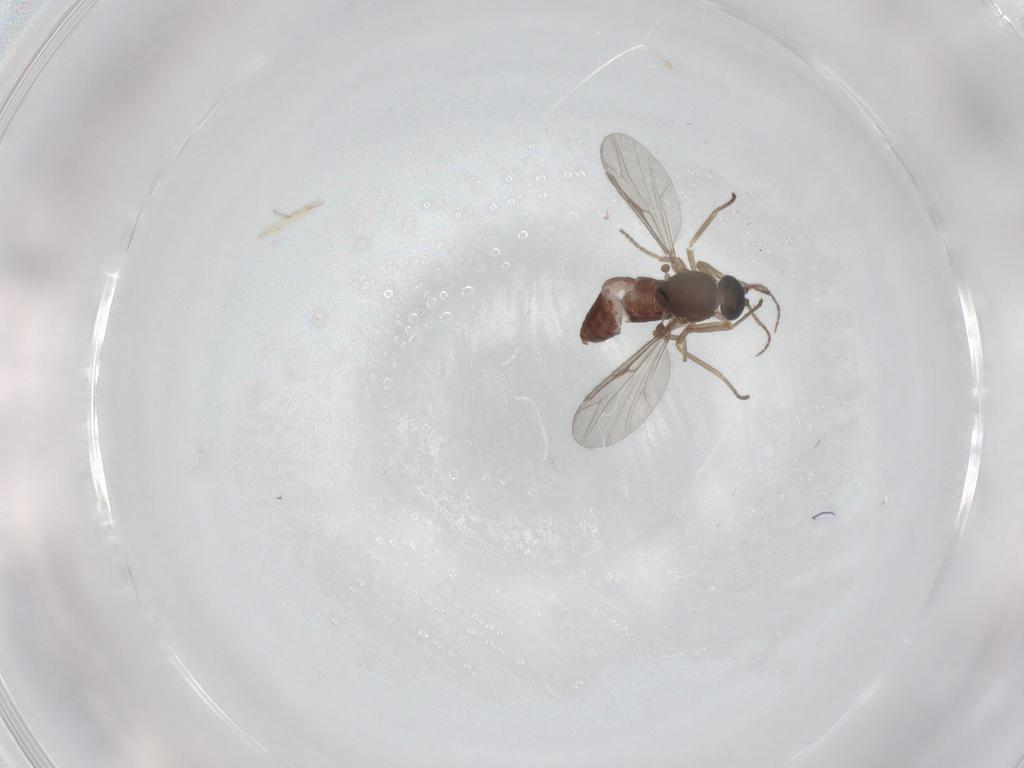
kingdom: Animalia
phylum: Arthropoda
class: Insecta
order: Diptera
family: Ceratopogonidae
